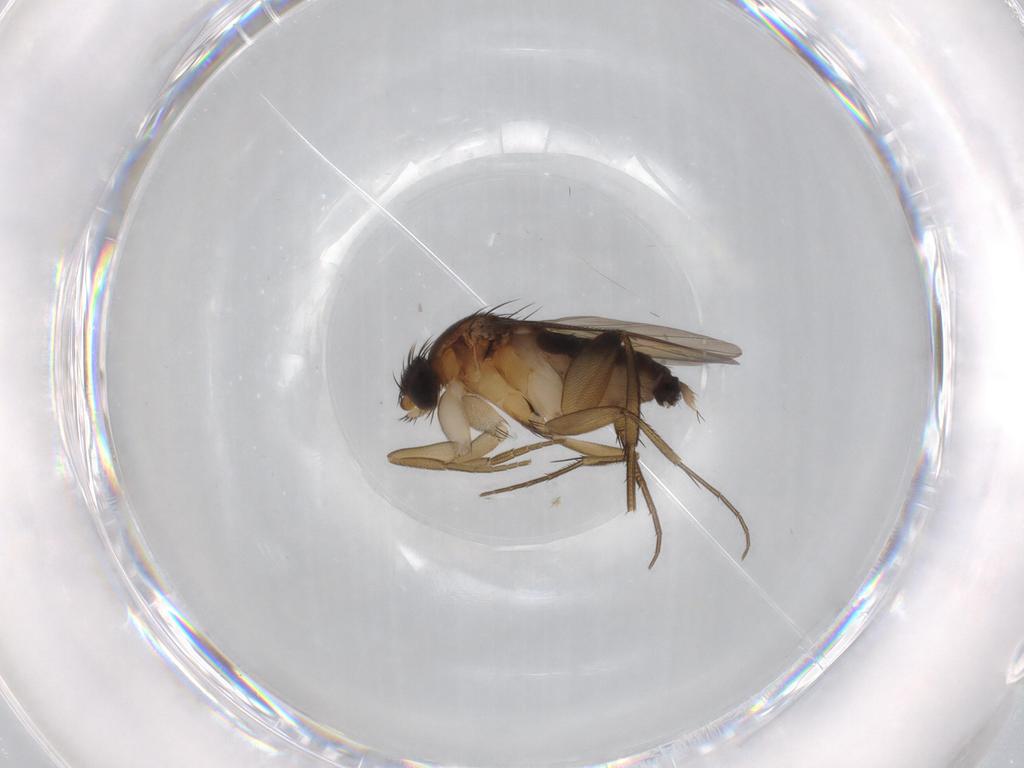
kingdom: Animalia
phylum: Arthropoda
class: Insecta
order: Diptera
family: Phoridae
